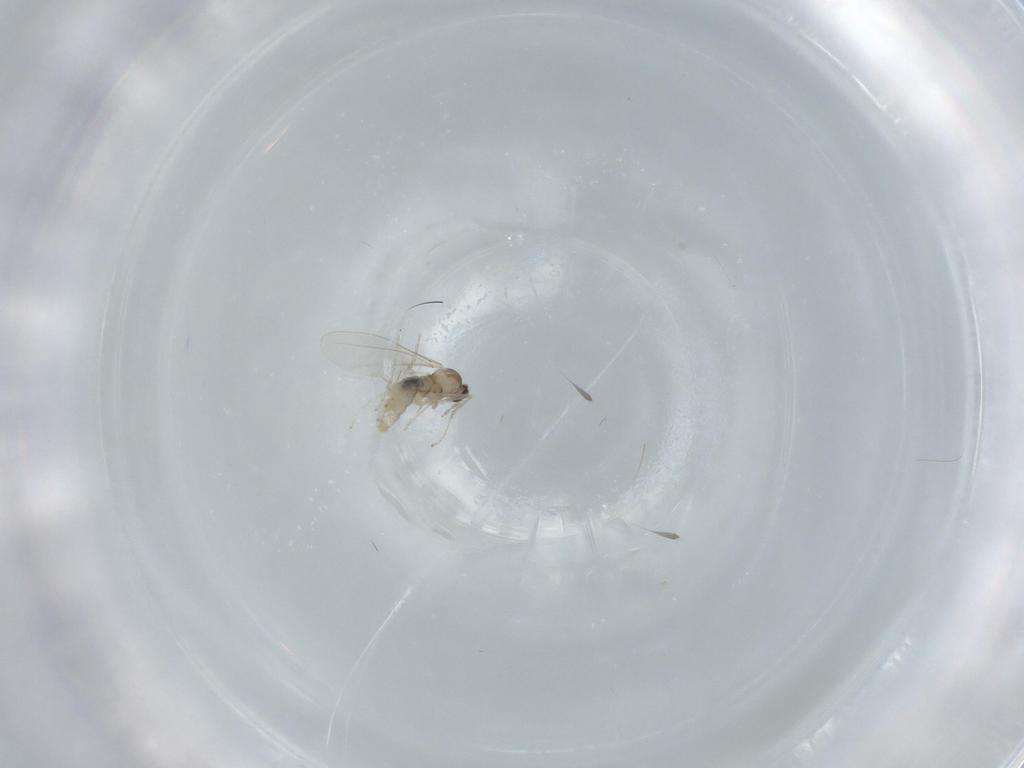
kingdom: Animalia
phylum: Arthropoda
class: Insecta
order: Diptera
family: Cecidomyiidae
